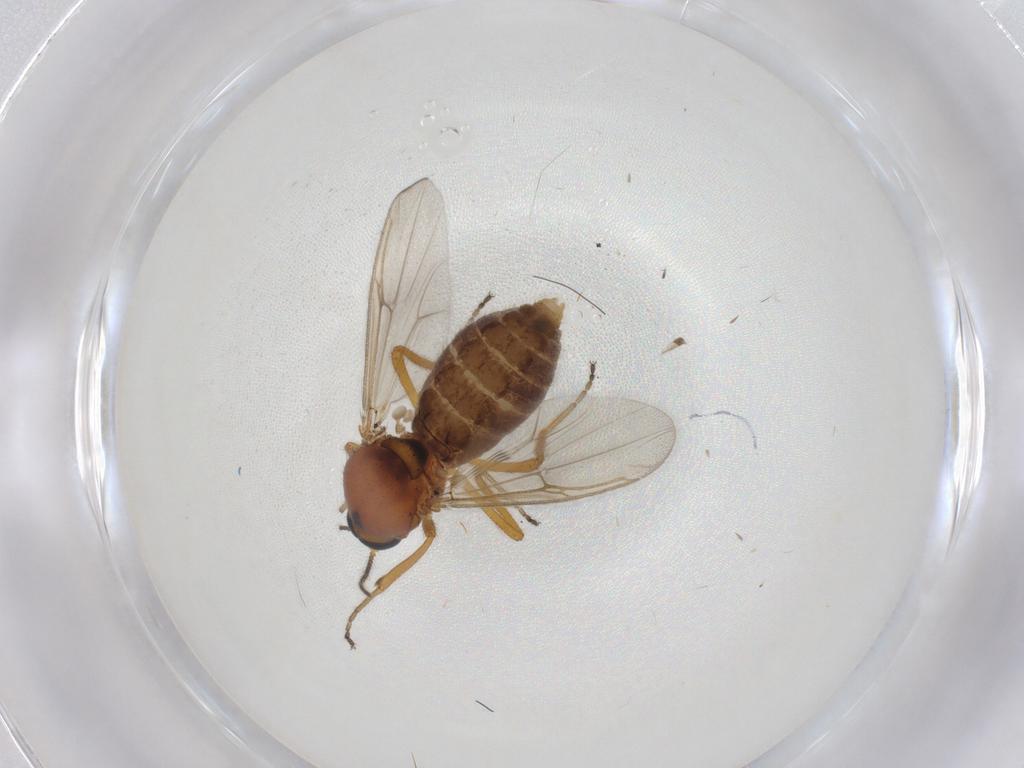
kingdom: Animalia
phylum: Arthropoda
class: Insecta
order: Diptera
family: Ceratopogonidae
